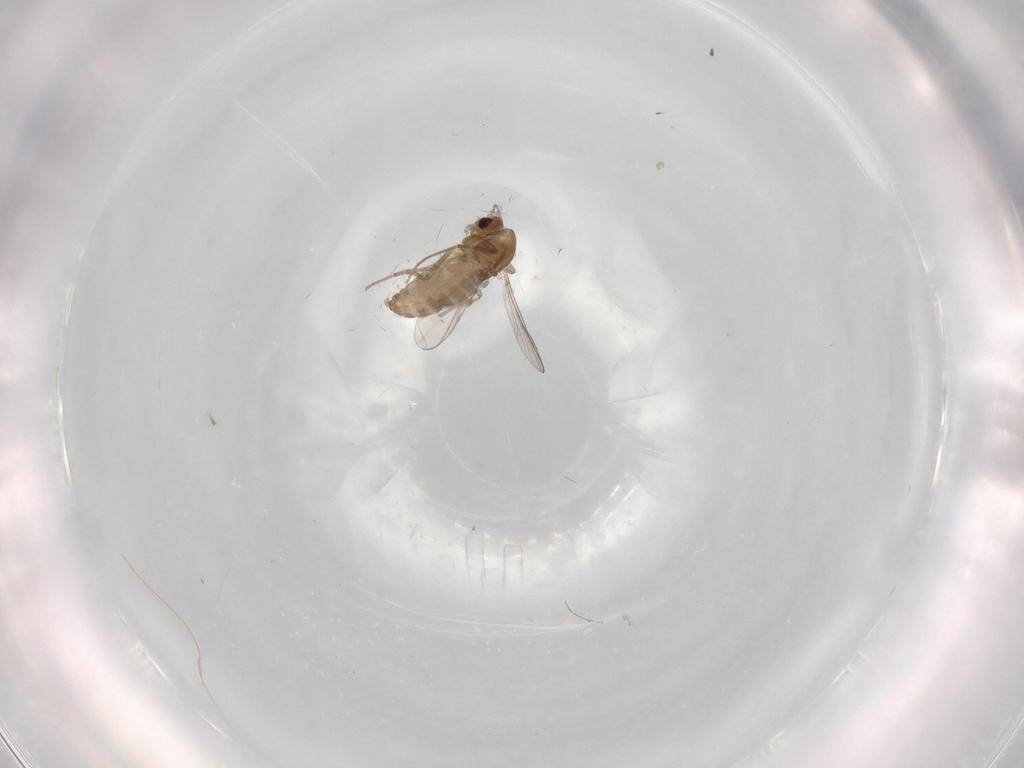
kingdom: Animalia
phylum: Arthropoda
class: Insecta
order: Diptera
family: Chironomidae
